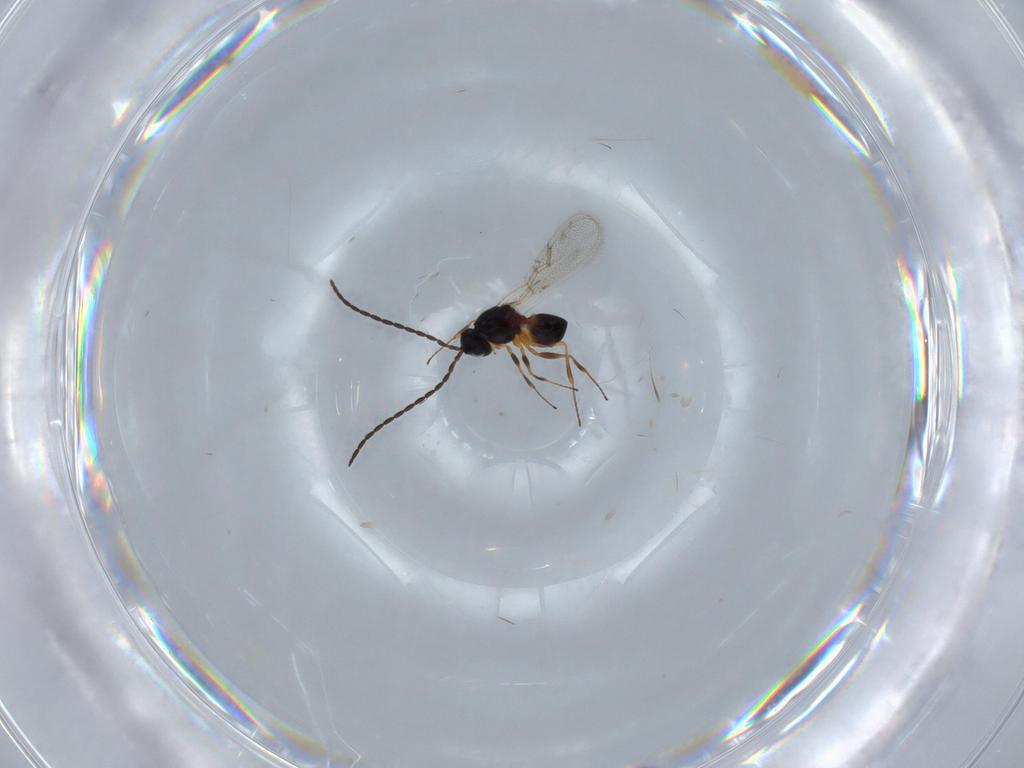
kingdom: Animalia
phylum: Arthropoda
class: Insecta
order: Hymenoptera
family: Figitidae
